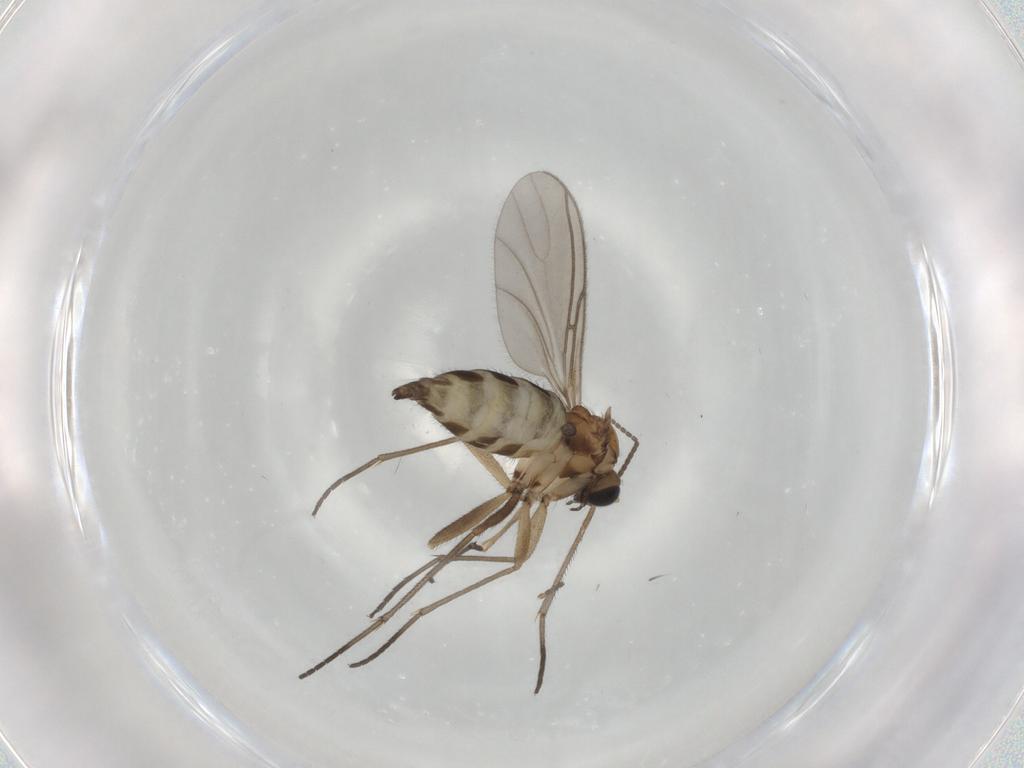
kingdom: Animalia
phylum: Arthropoda
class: Insecta
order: Diptera
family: Sciaridae
